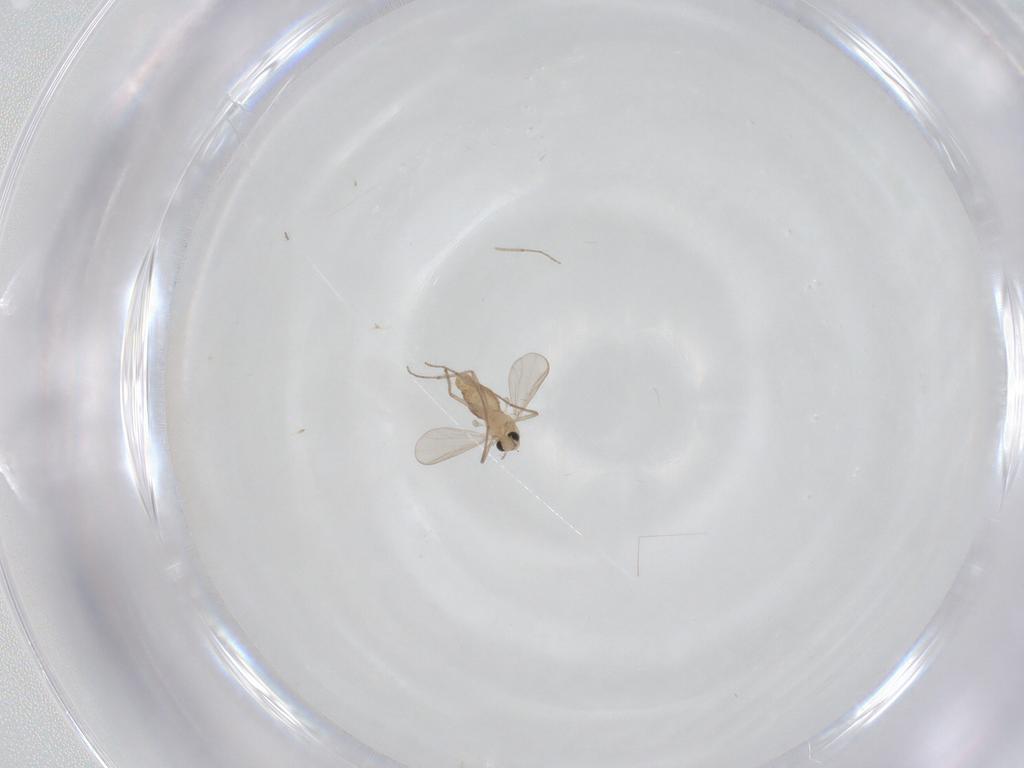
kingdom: Animalia
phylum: Arthropoda
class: Insecta
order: Diptera
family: Chironomidae
